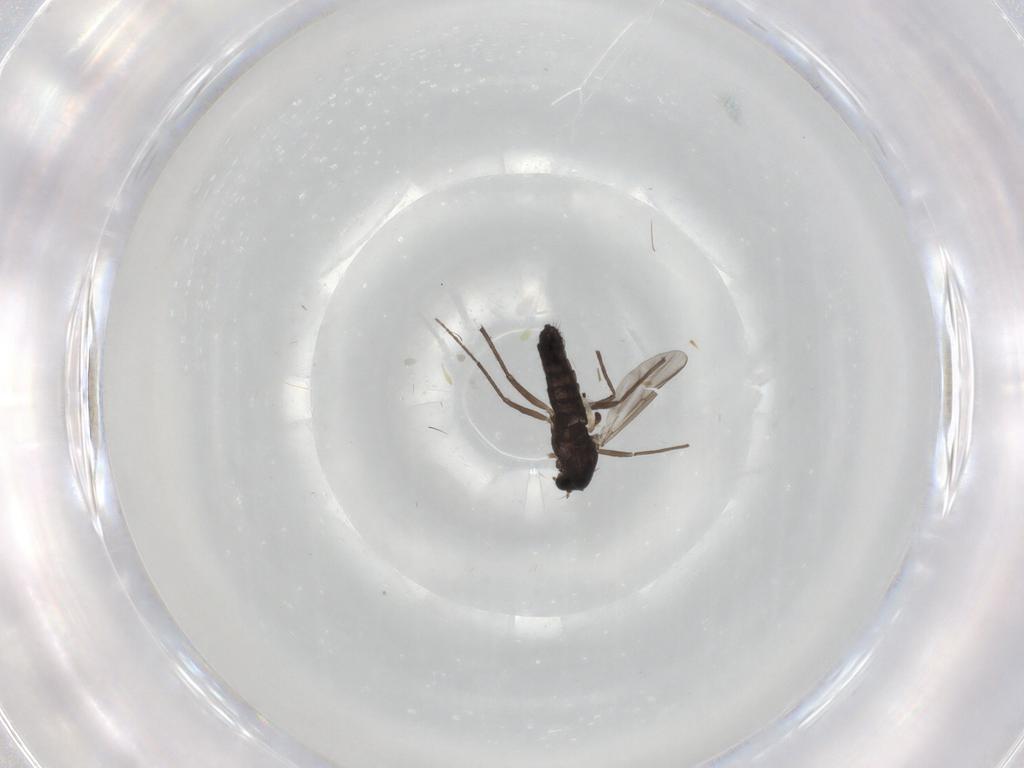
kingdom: Animalia
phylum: Arthropoda
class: Insecta
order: Diptera
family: Chironomidae
